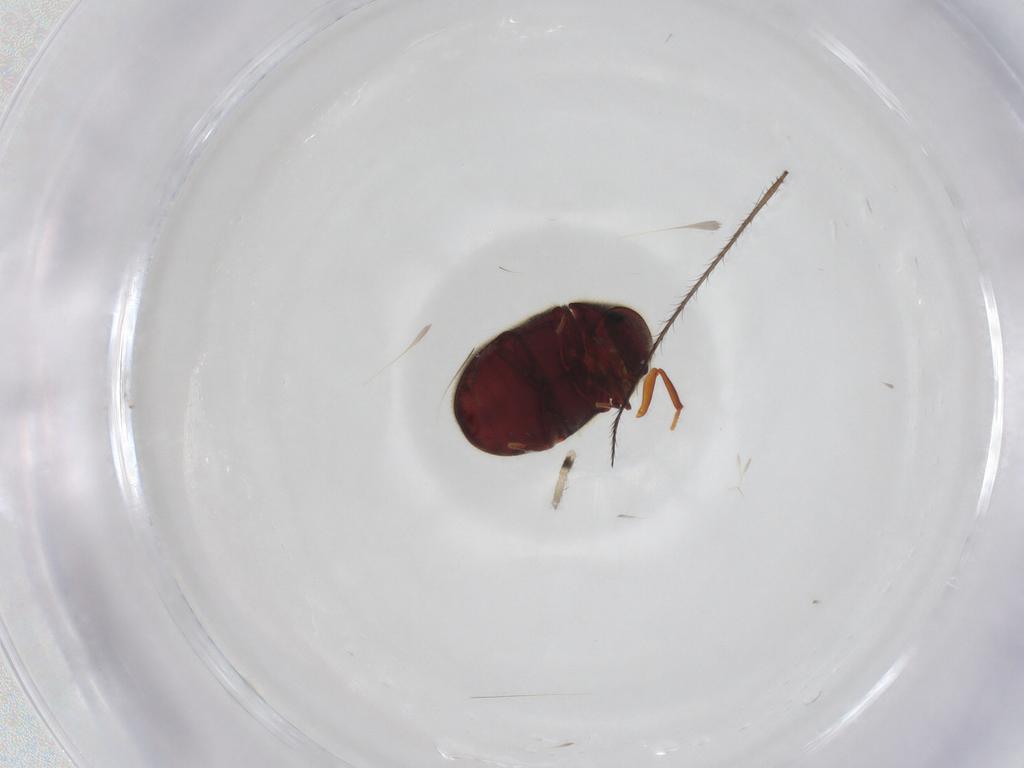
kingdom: Animalia
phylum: Arthropoda
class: Insecta
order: Coleoptera
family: Ptinidae
